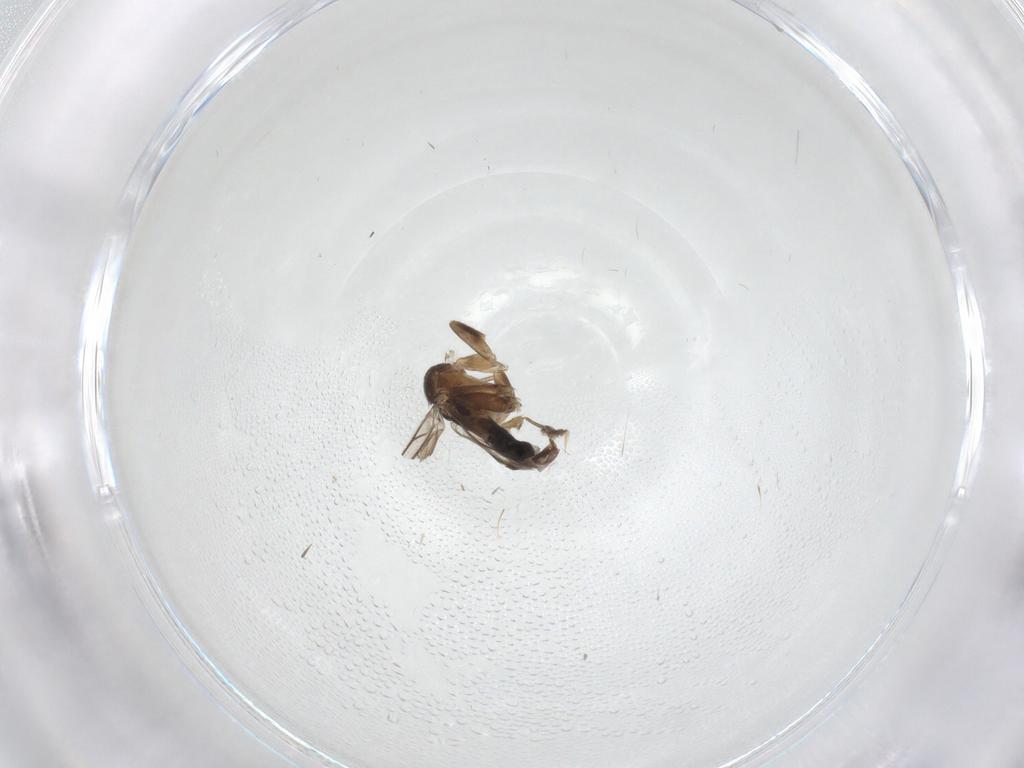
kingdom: Animalia
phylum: Arthropoda
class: Insecta
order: Diptera
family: Phoridae
